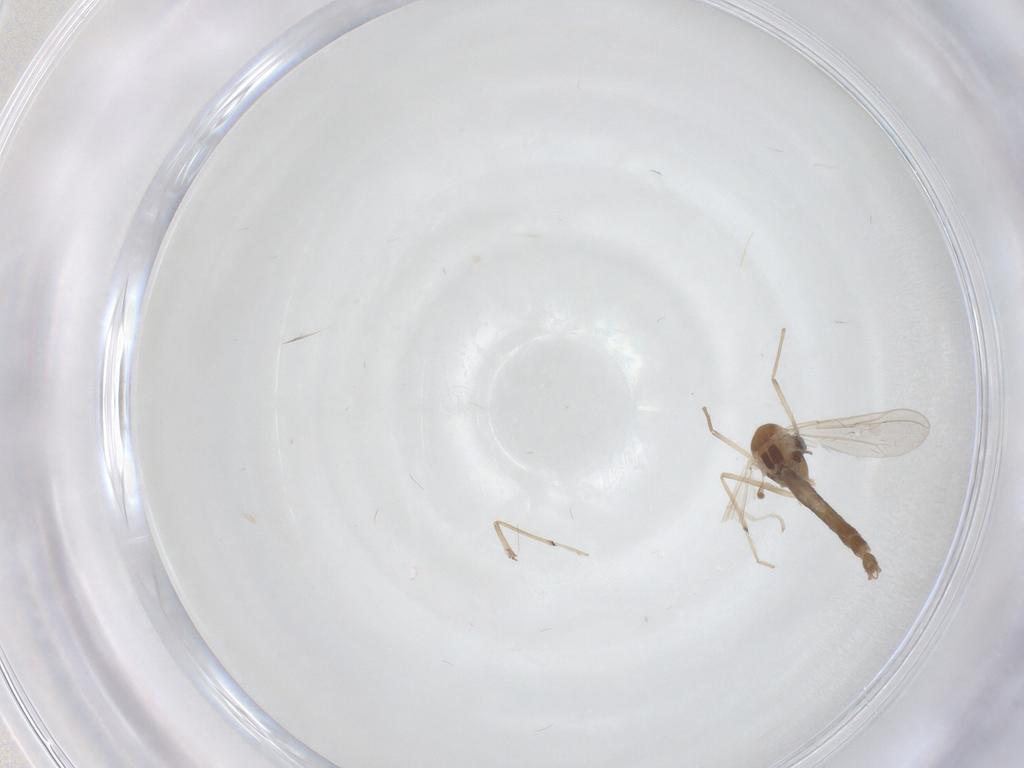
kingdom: Animalia
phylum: Arthropoda
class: Insecta
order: Diptera
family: Chironomidae
